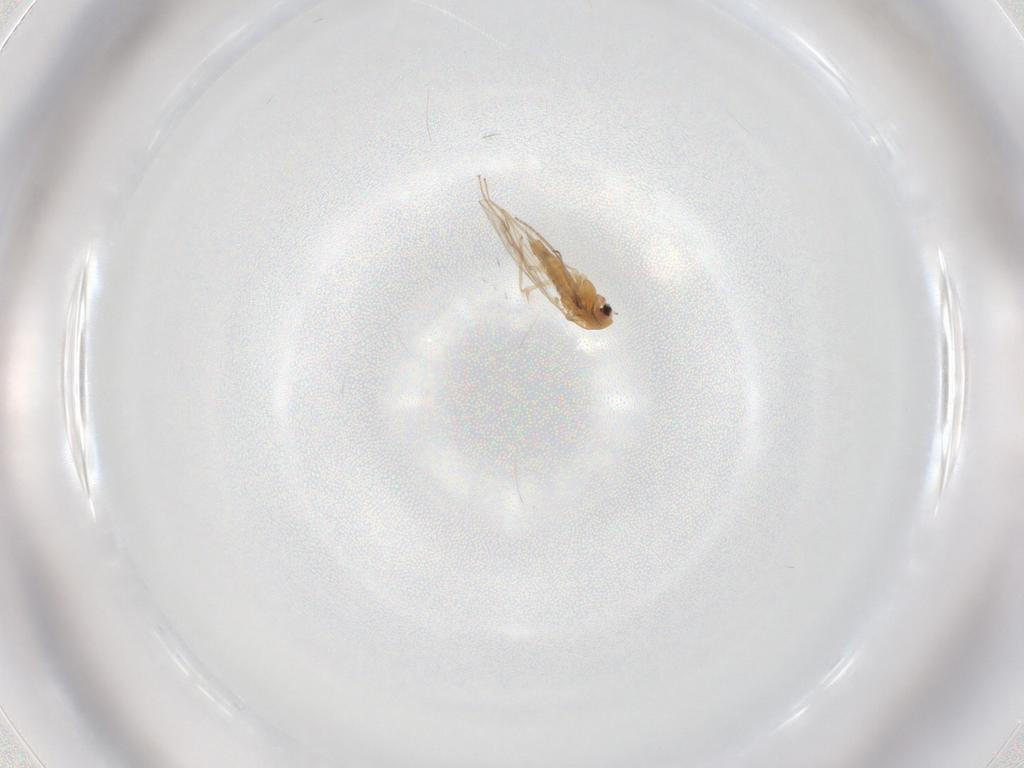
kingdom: Animalia
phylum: Arthropoda
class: Insecta
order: Diptera
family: Chironomidae
